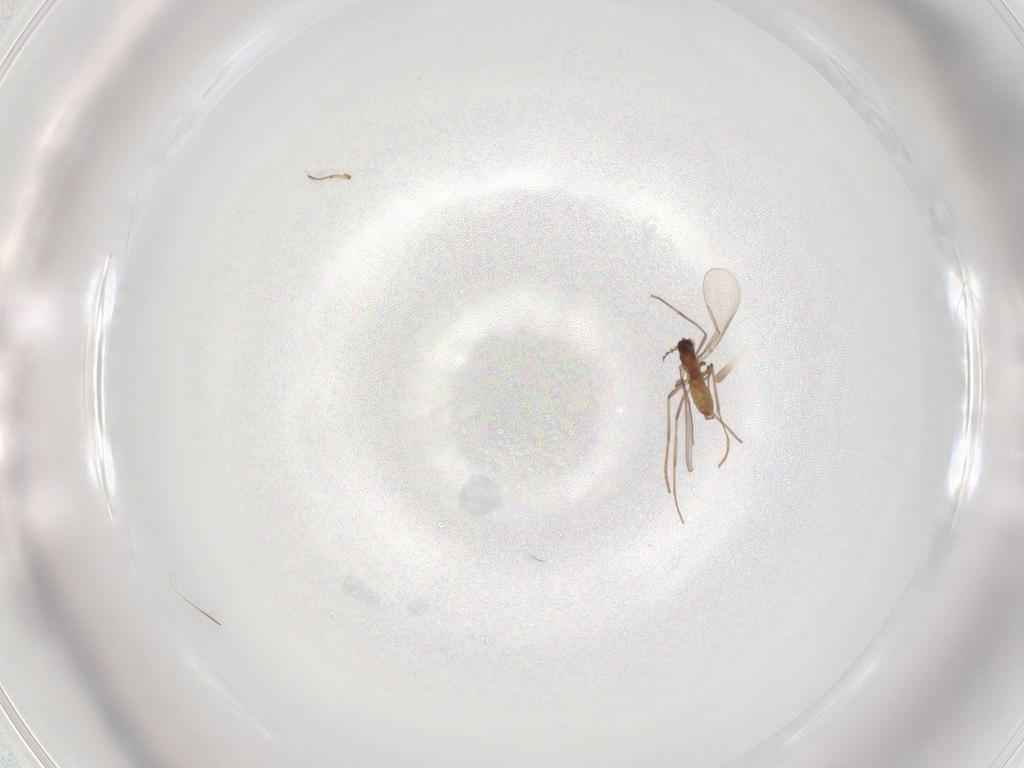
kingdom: Animalia
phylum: Arthropoda
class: Insecta
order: Diptera
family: Cecidomyiidae
